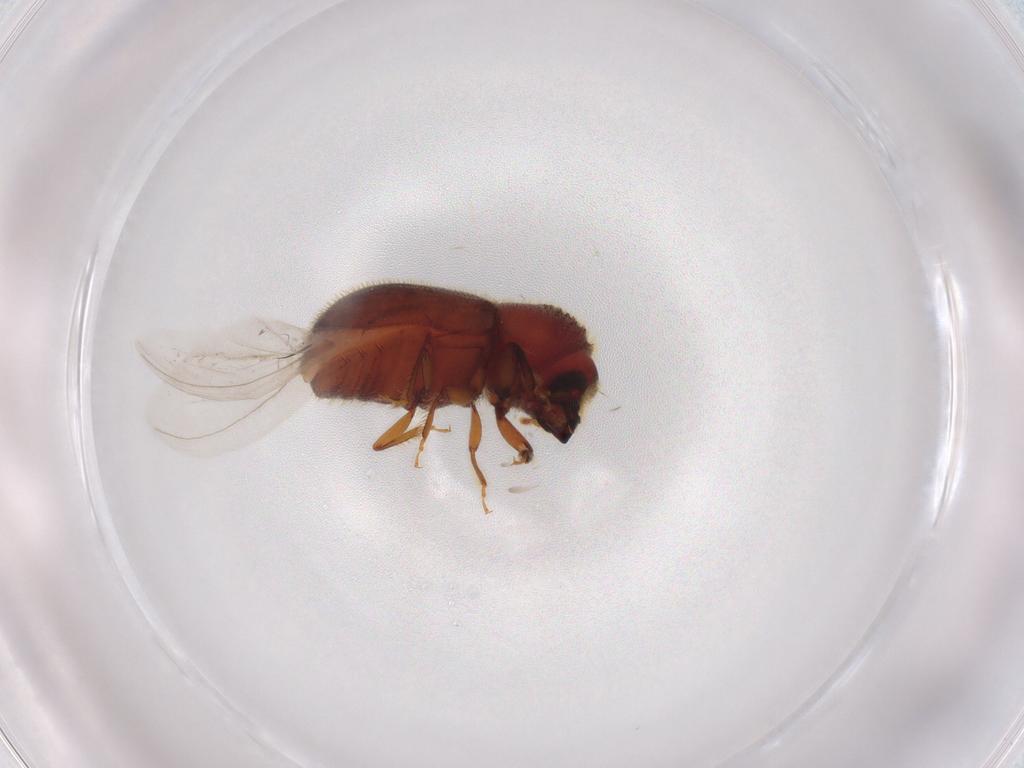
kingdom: Animalia
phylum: Arthropoda
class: Insecta
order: Coleoptera
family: Curculionidae
